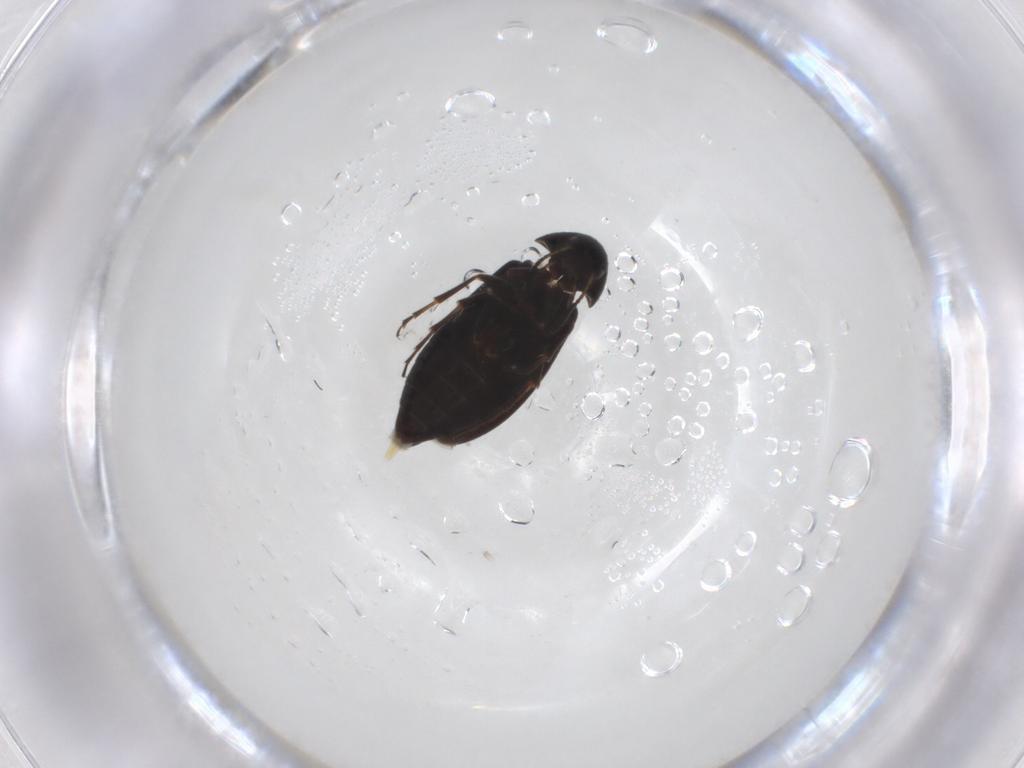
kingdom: Animalia
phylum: Arthropoda
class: Insecta
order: Coleoptera
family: Scraptiidae
